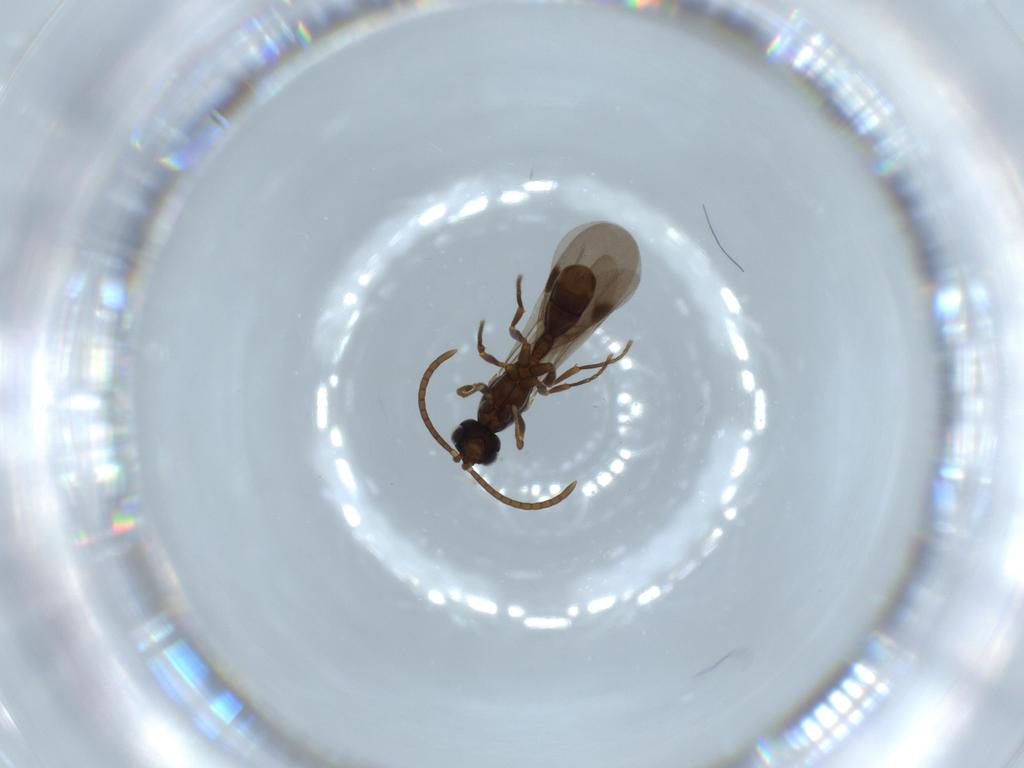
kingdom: Animalia
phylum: Arthropoda
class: Insecta
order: Hymenoptera
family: Formicidae
